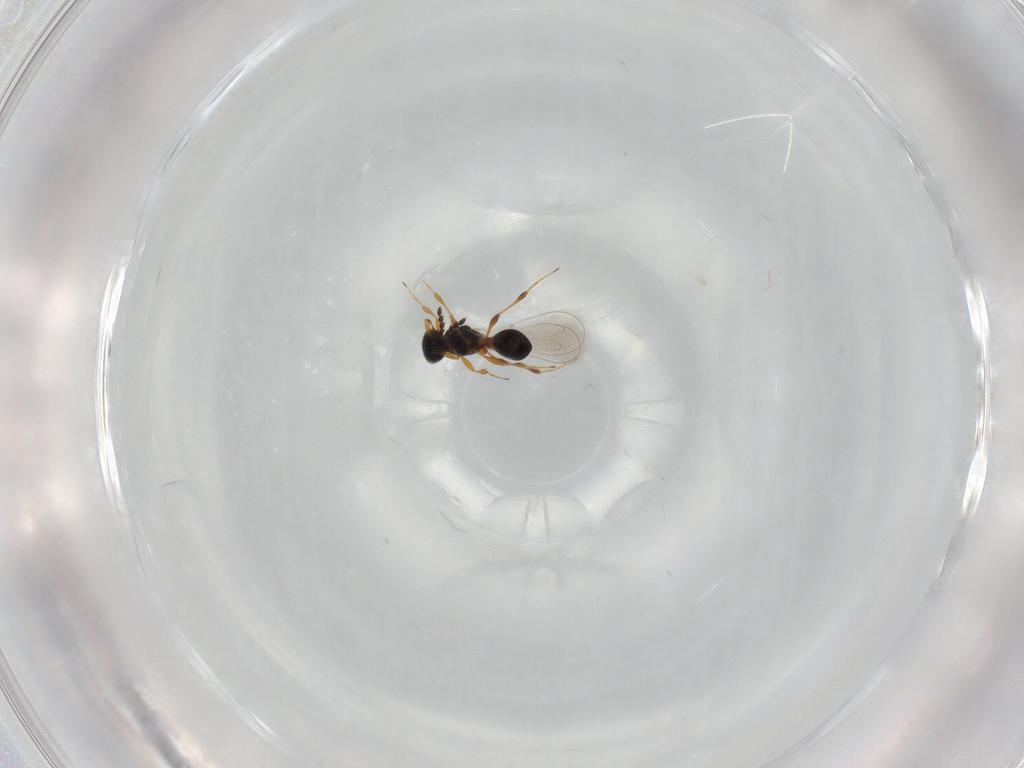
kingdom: Animalia
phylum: Arthropoda
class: Insecta
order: Hymenoptera
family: Platygastridae
